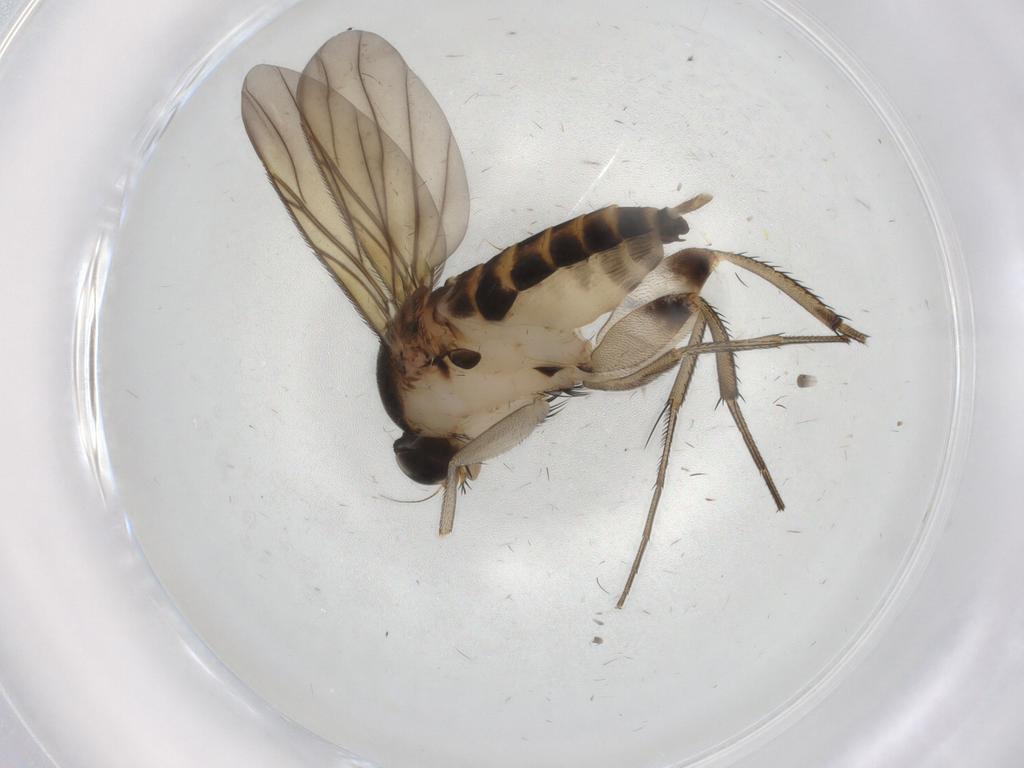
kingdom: Animalia
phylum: Arthropoda
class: Insecta
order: Diptera
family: Phoridae
